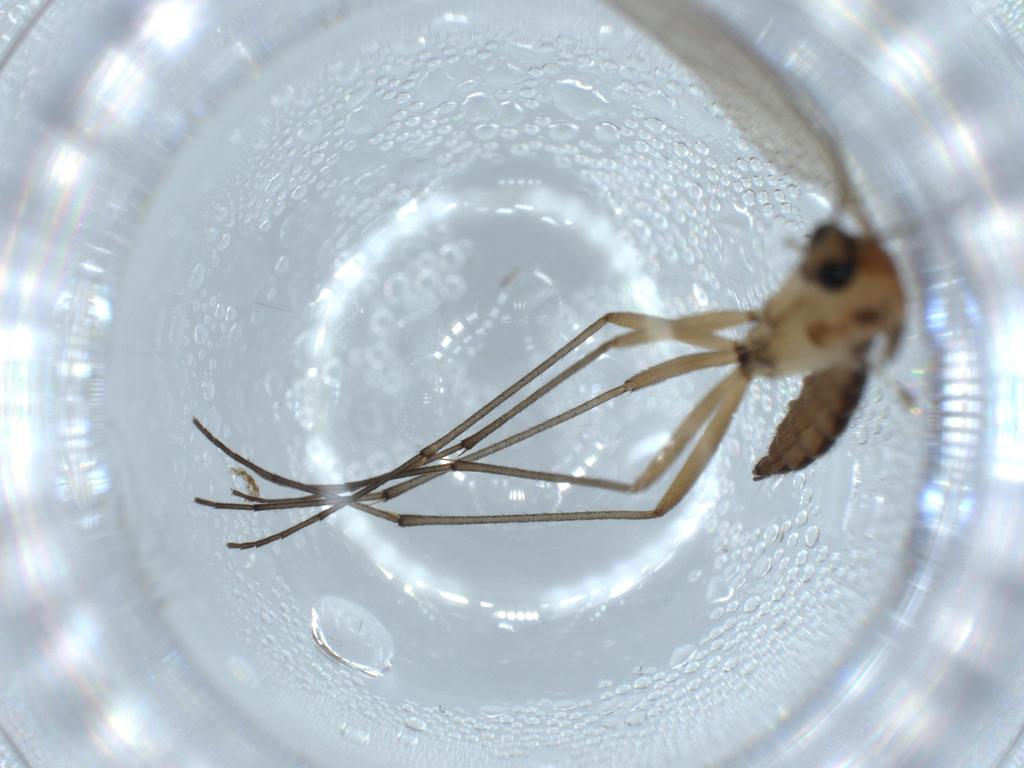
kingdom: Animalia
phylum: Arthropoda
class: Insecta
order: Diptera
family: Sciaridae
